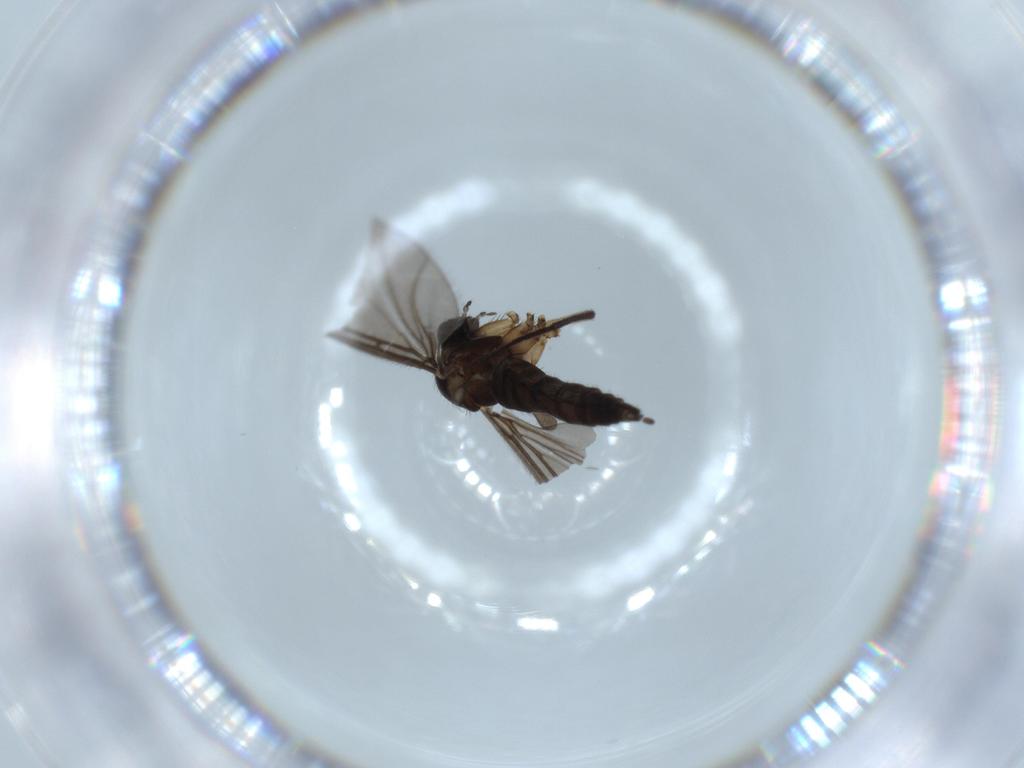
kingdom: Animalia
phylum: Arthropoda
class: Insecta
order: Diptera
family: Sciaridae
